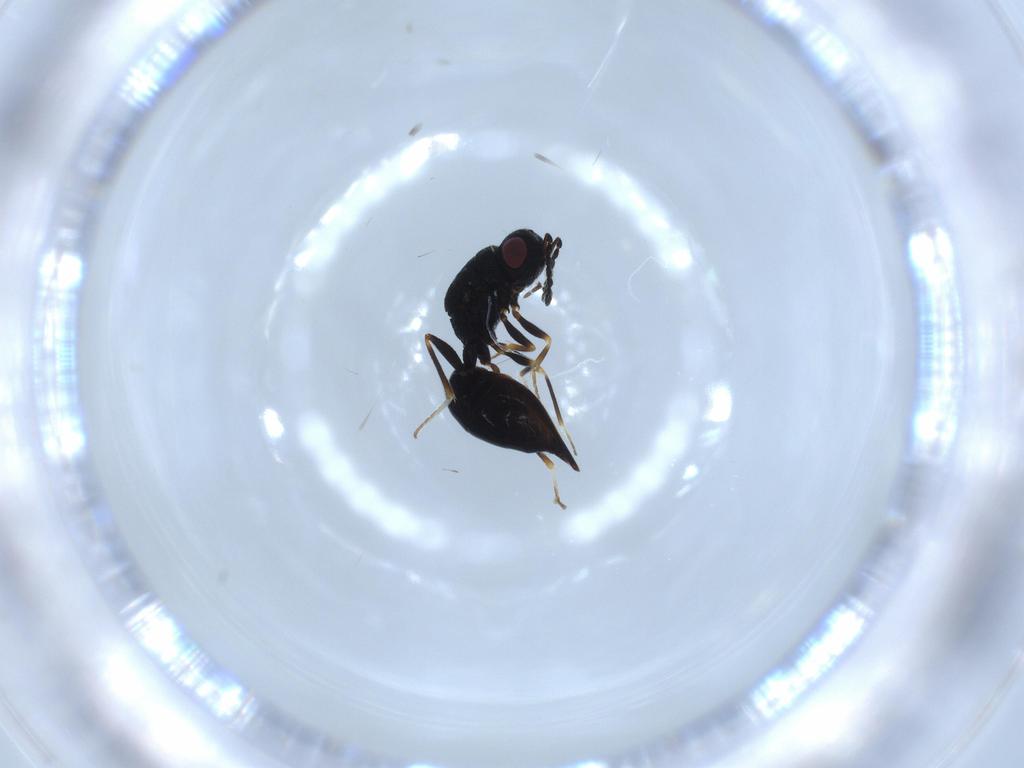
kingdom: Animalia
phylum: Arthropoda
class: Insecta
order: Hymenoptera
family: Eurytomidae
